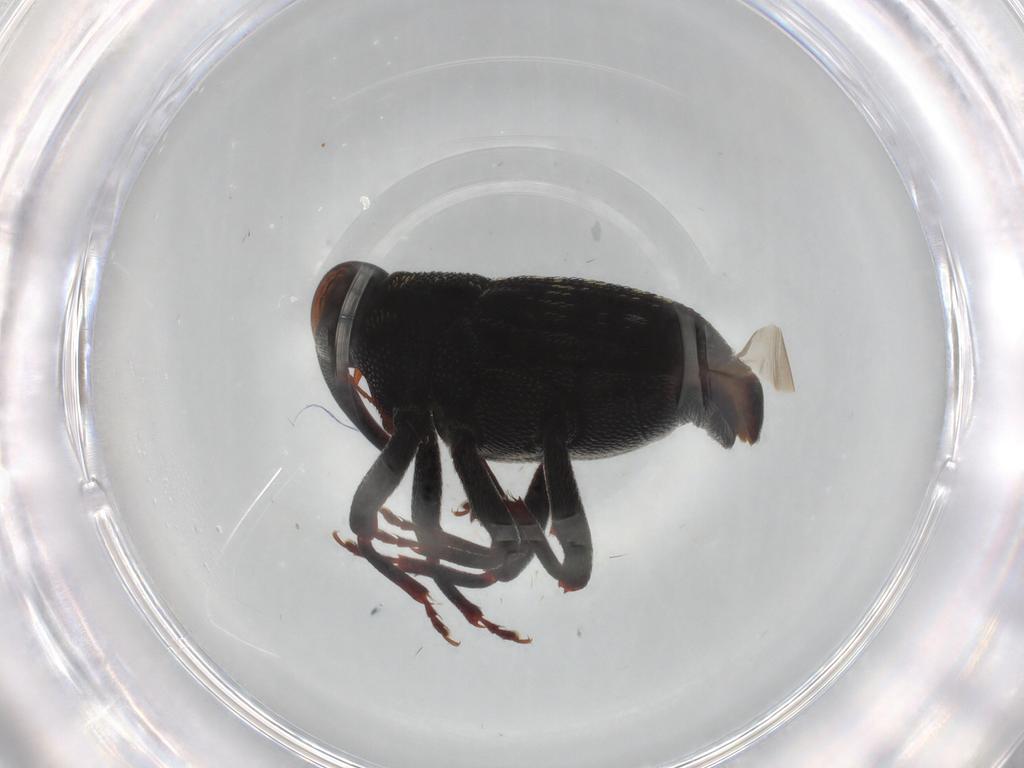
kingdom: Animalia
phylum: Arthropoda
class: Insecta
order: Coleoptera
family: Curculionidae
